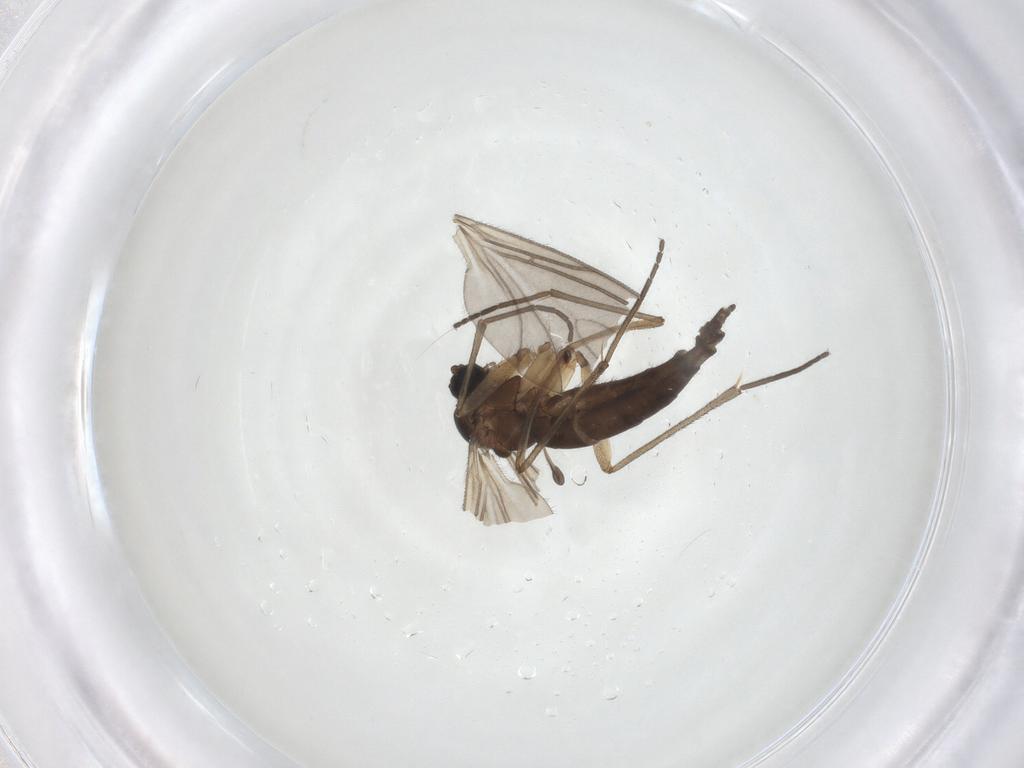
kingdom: Animalia
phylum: Arthropoda
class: Insecta
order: Diptera
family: Sciaridae
